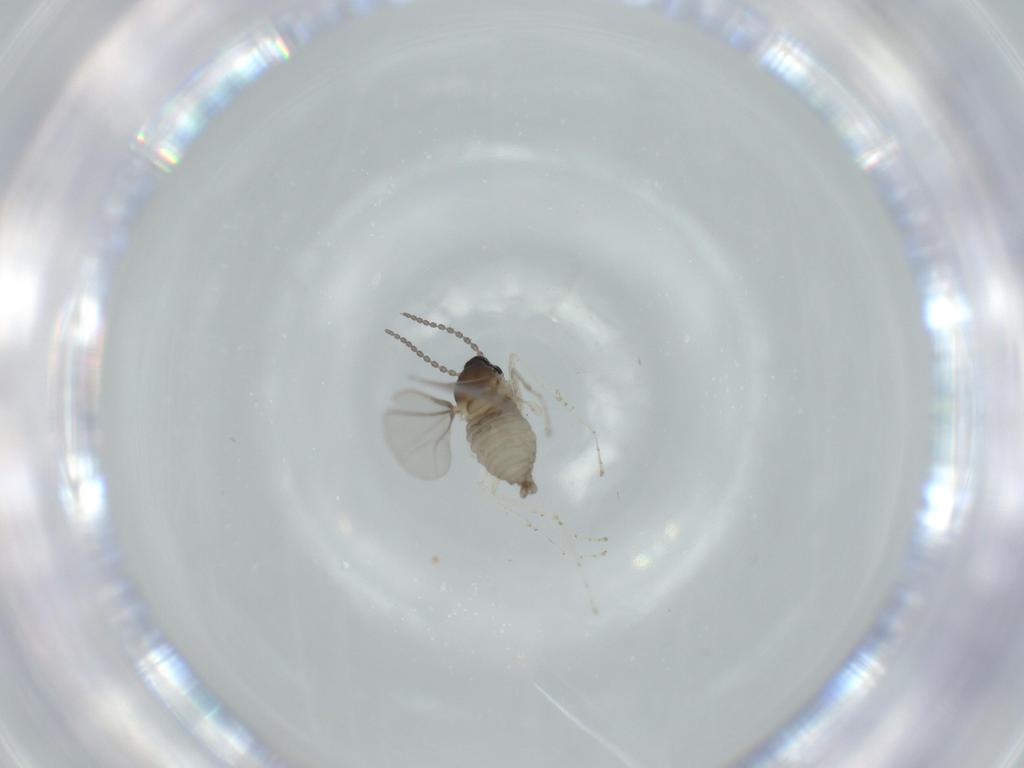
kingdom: Animalia
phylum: Arthropoda
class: Insecta
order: Diptera
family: Cecidomyiidae
